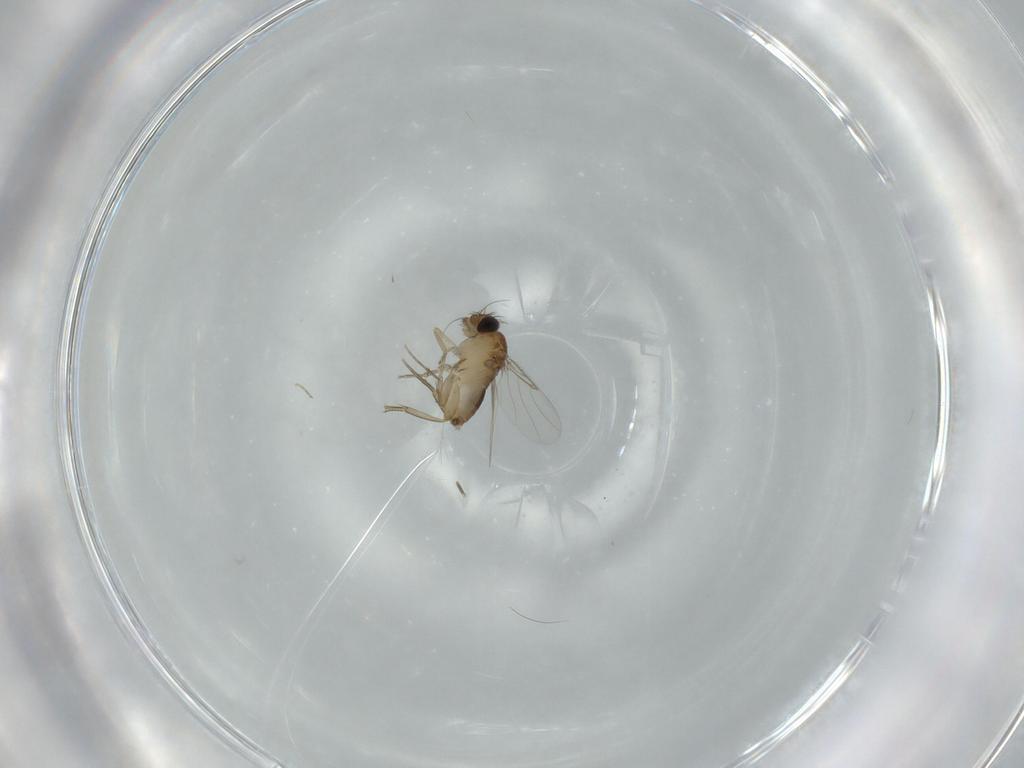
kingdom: Animalia
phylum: Arthropoda
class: Insecta
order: Diptera
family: Phoridae
